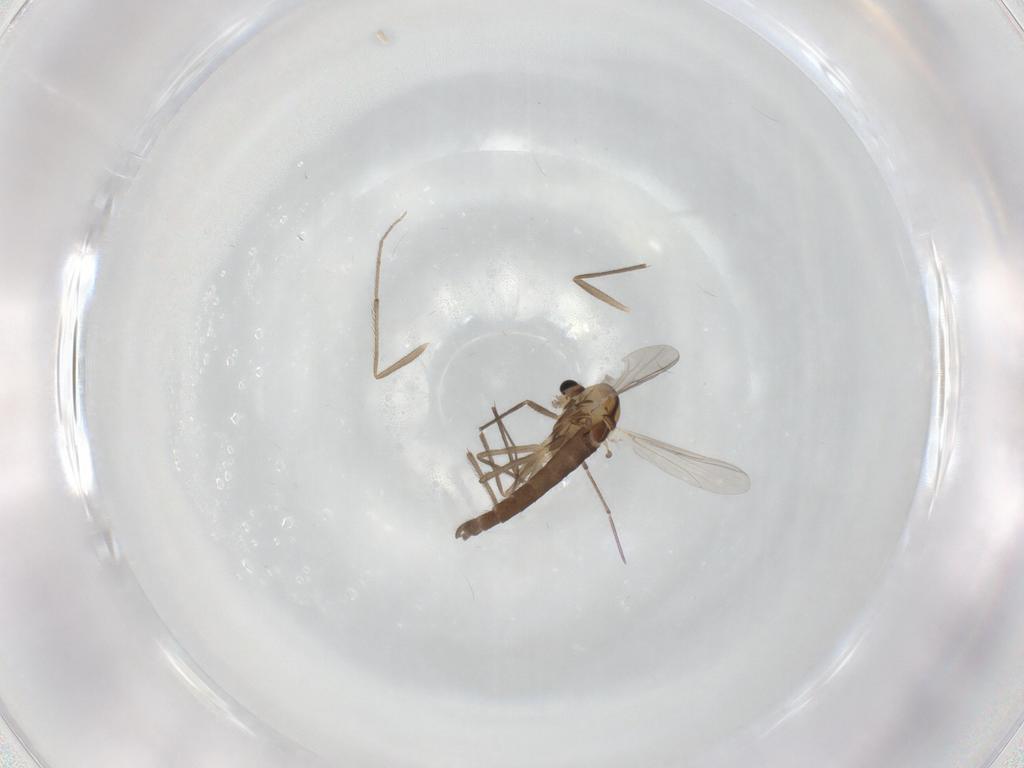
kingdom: Animalia
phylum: Arthropoda
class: Insecta
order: Diptera
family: Chironomidae
